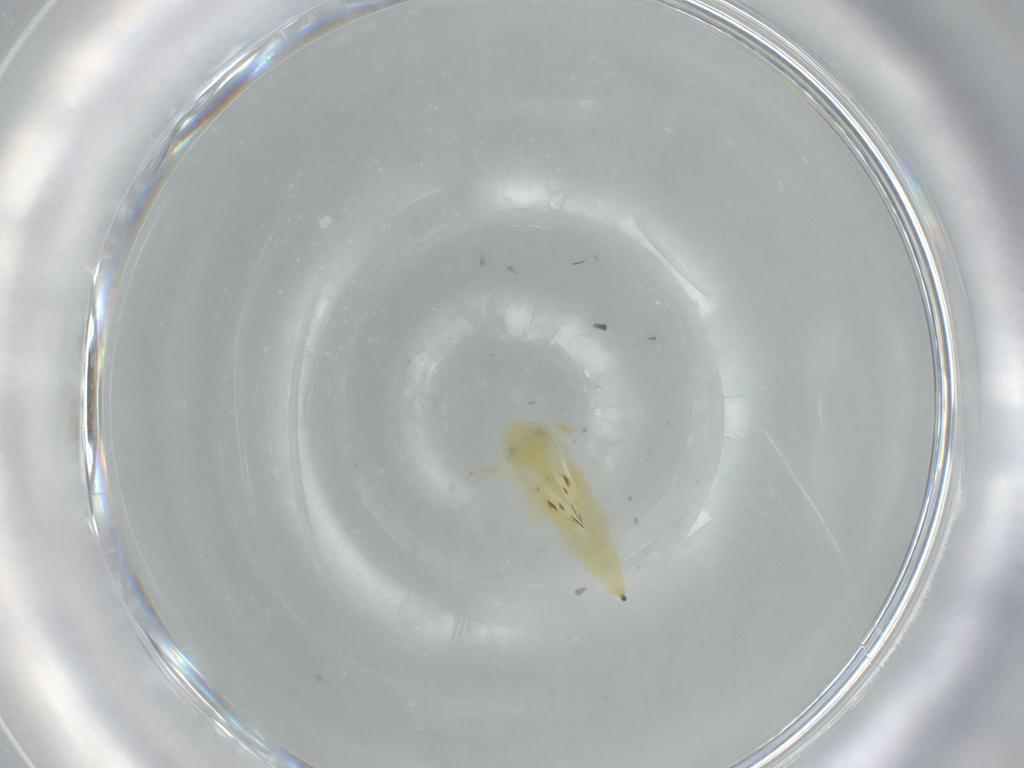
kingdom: Animalia
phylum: Arthropoda
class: Insecta
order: Hemiptera
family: Cicadellidae
